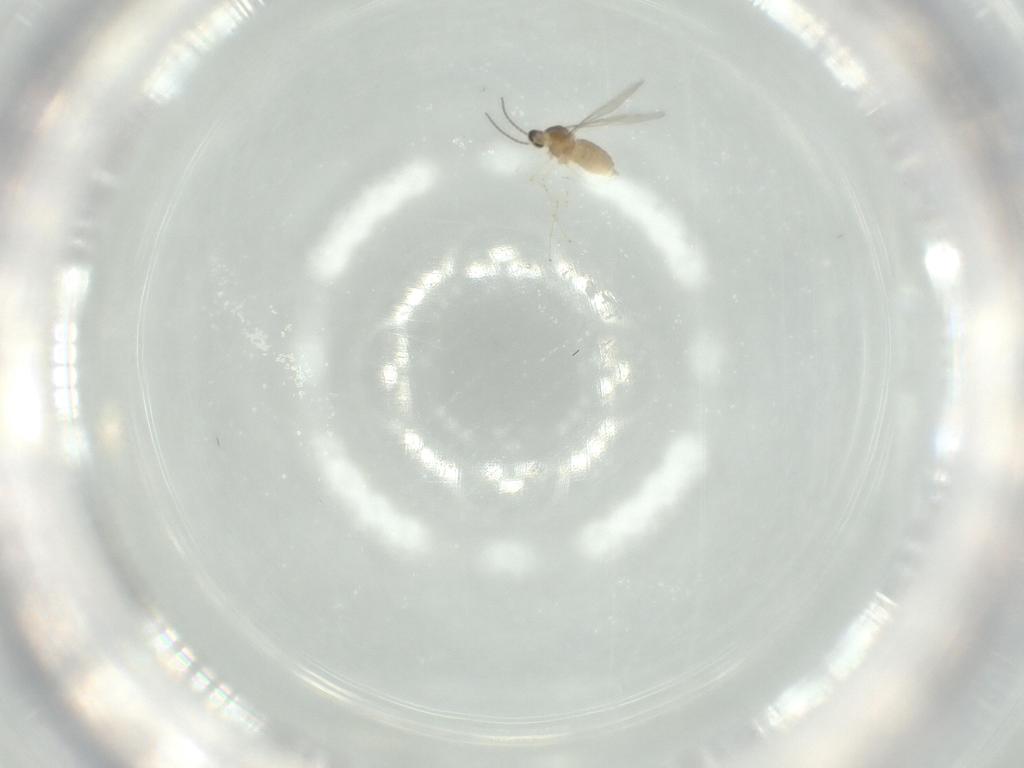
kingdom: Animalia
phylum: Arthropoda
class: Insecta
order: Diptera
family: Cecidomyiidae
